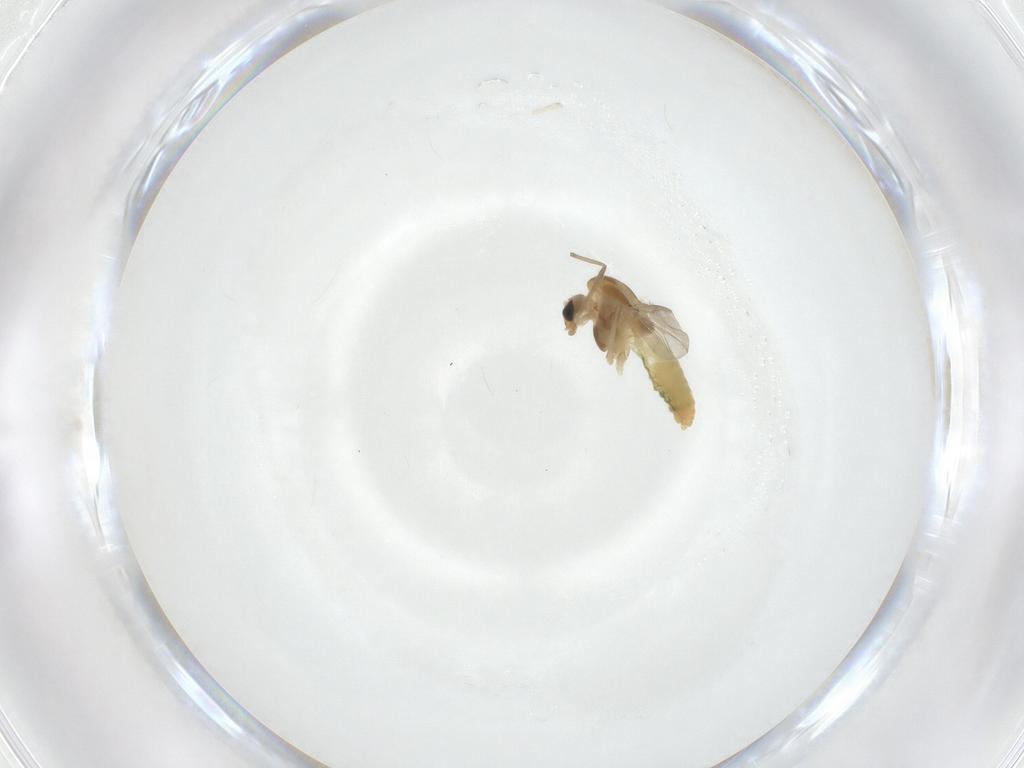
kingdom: Animalia
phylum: Arthropoda
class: Insecta
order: Diptera
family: Chironomidae
